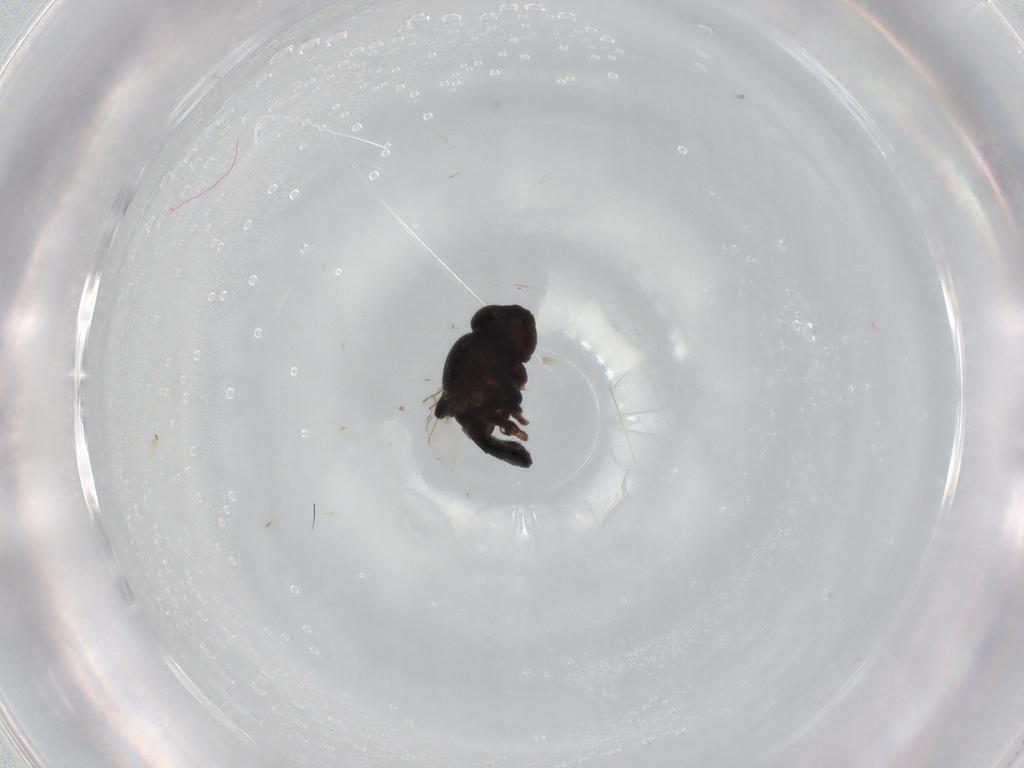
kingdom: Animalia
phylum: Arthropoda
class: Insecta
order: Diptera
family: Chloropidae
